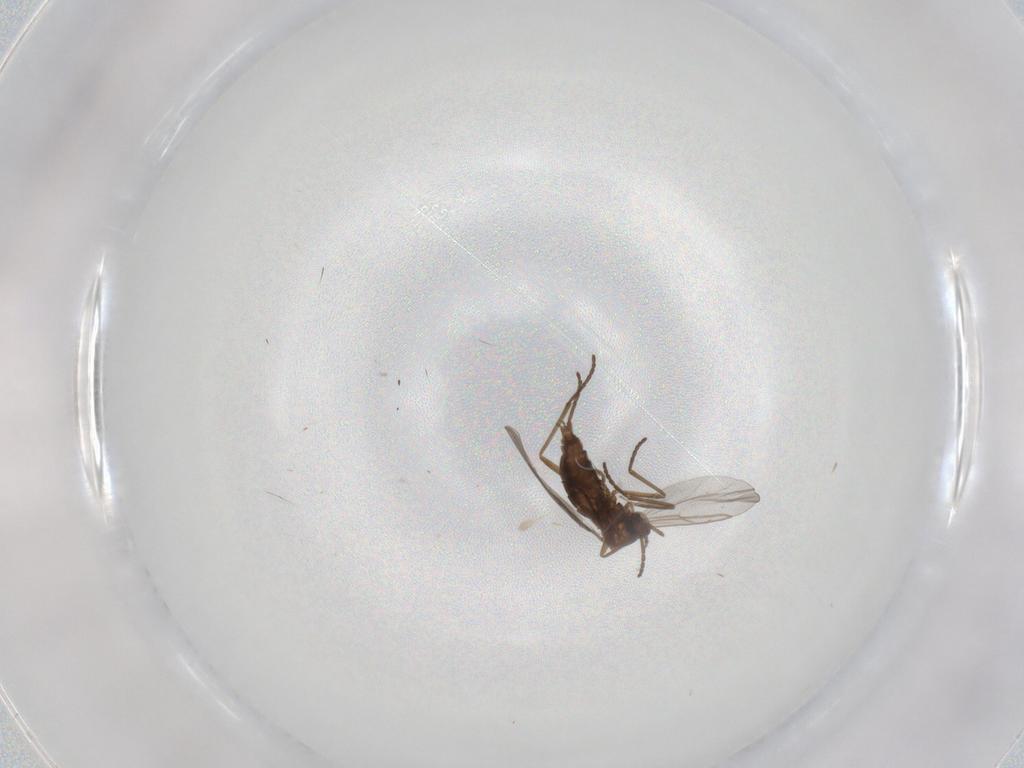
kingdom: Animalia
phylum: Arthropoda
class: Insecta
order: Diptera
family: Cecidomyiidae
